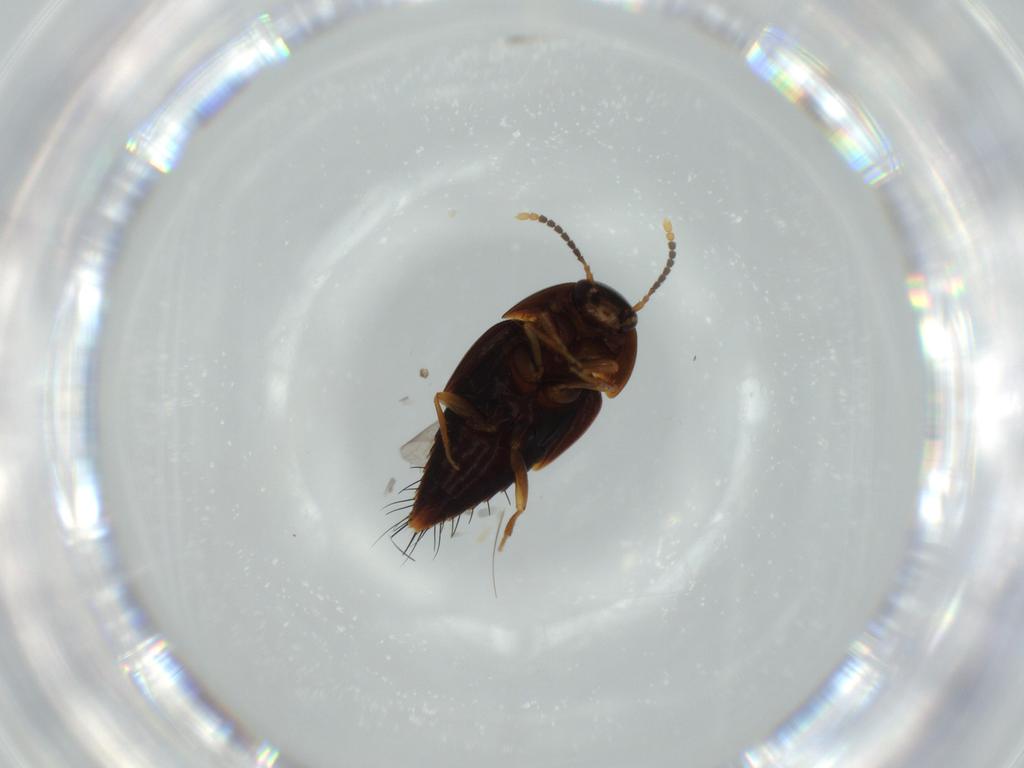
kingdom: Animalia
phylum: Arthropoda
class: Insecta
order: Coleoptera
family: Staphylinidae
